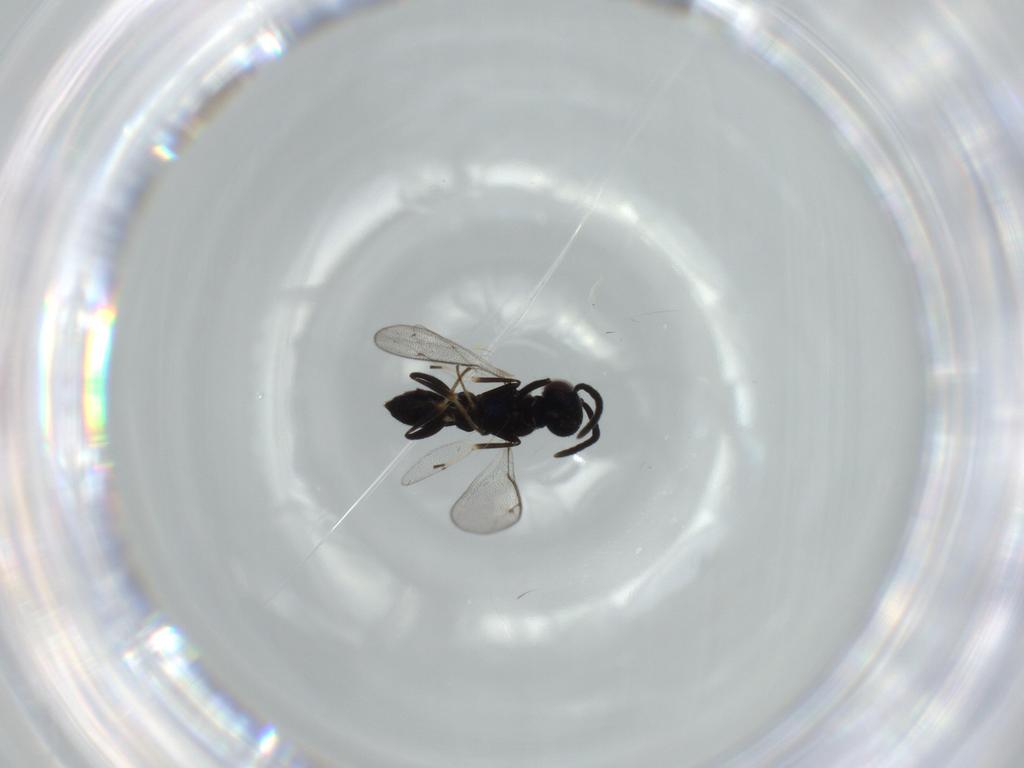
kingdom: Animalia
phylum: Arthropoda
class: Insecta
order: Hymenoptera
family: Eupelmidae
